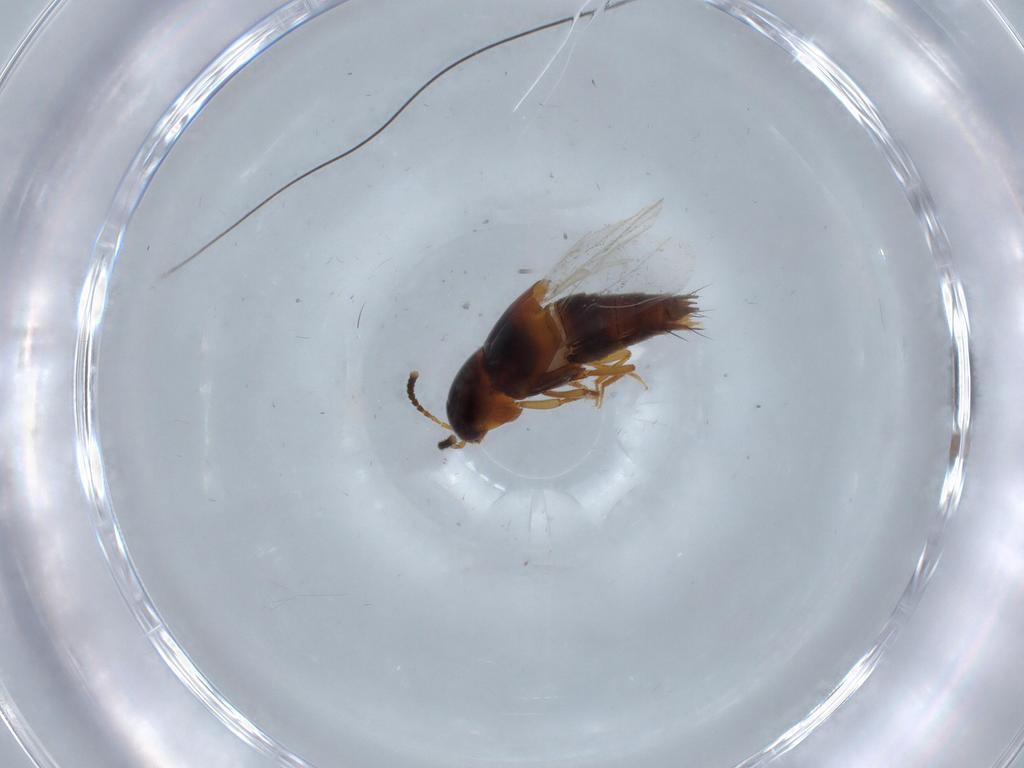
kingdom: Animalia
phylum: Arthropoda
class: Insecta
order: Coleoptera
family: Staphylinidae
